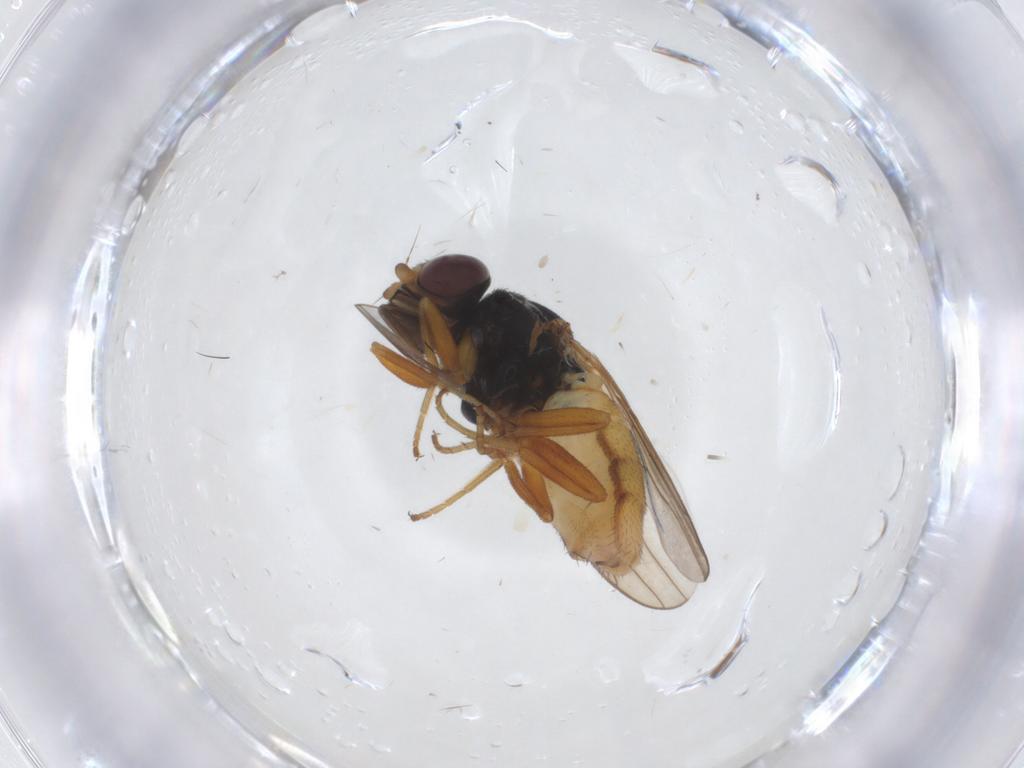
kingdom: Animalia
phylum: Arthropoda
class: Insecta
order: Diptera
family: Chloropidae
